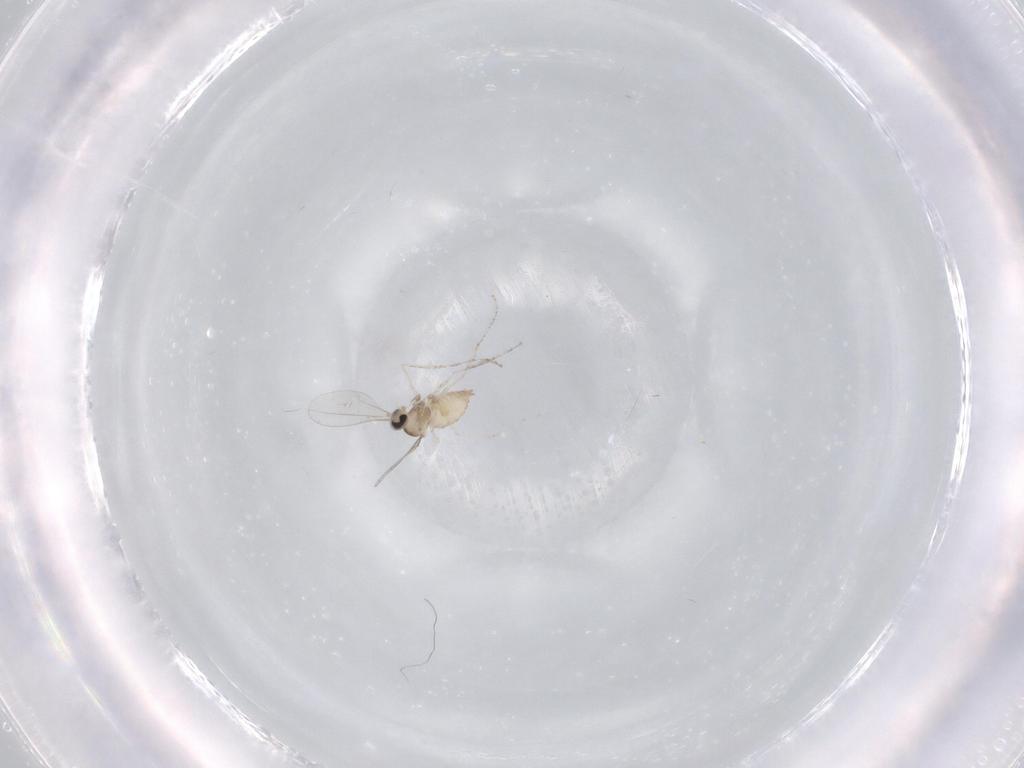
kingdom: Animalia
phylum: Arthropoda
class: Insecta
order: Diptera
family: Cecidomyiidae
